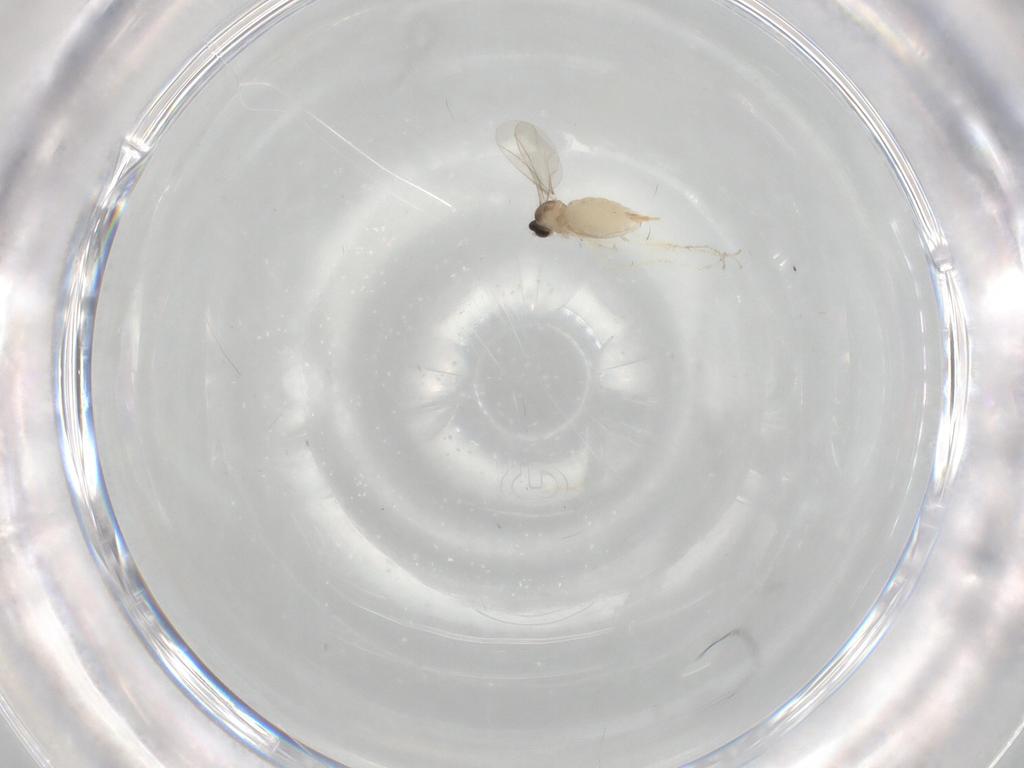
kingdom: Animalia
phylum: Arthropoda
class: Insecta
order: Diptera
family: Cecidomyiidae
